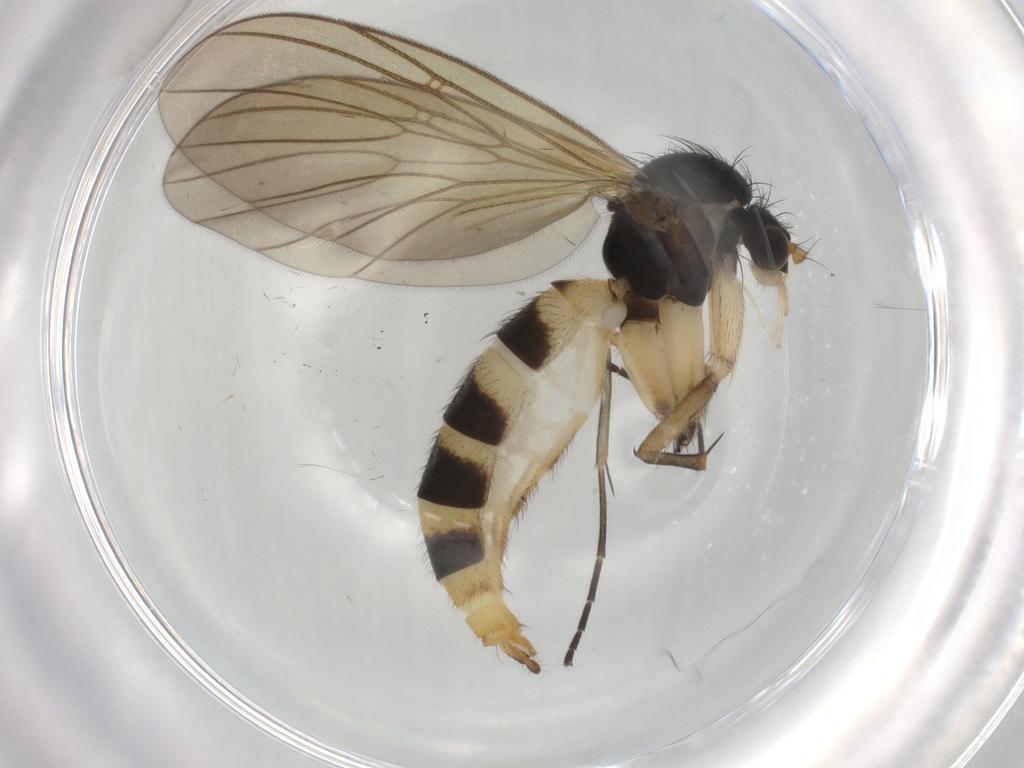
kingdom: Animalia
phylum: Arthropoda
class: Insecta
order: Diptera
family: Mycetophilidae
